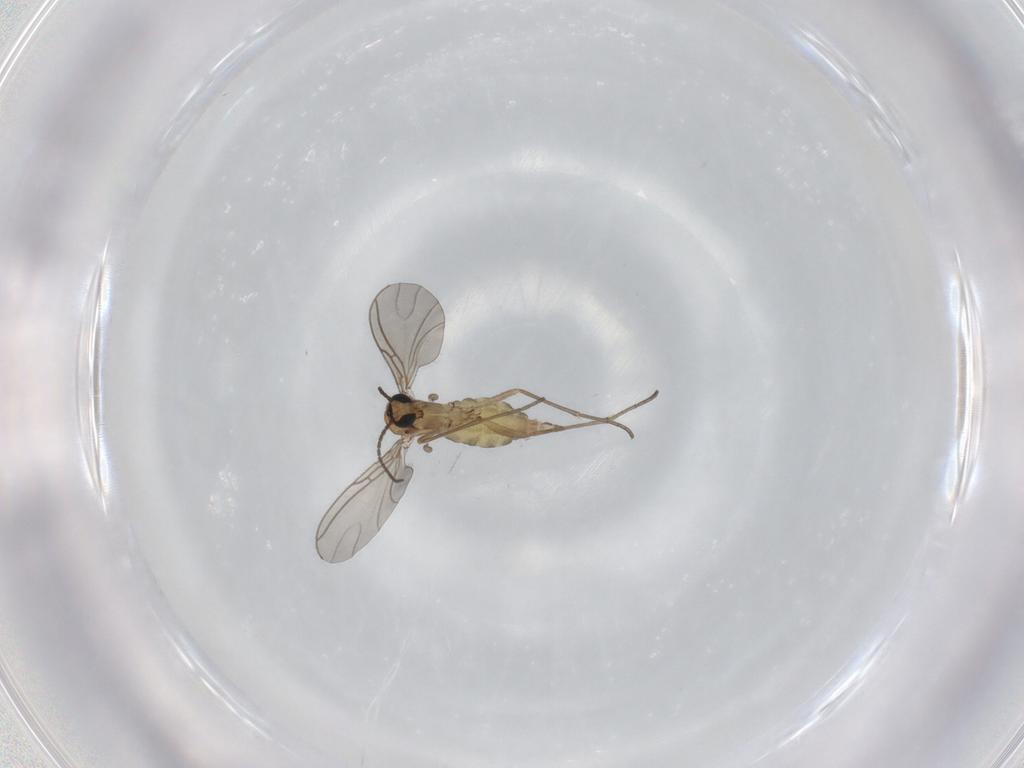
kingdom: Animalia
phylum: Arthropoda
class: Insecta
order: Diptera
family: Sciaridae
